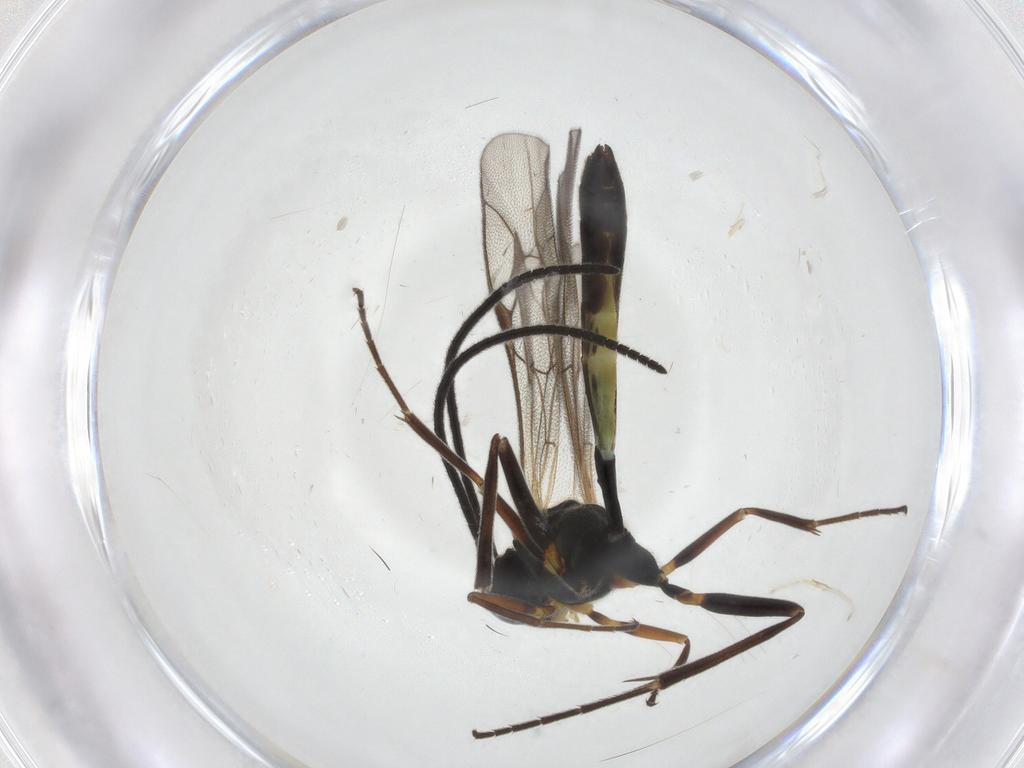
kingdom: Animalia
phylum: Arthropoda
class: Insecta
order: Hymenoptera
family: Ichneumonidae
